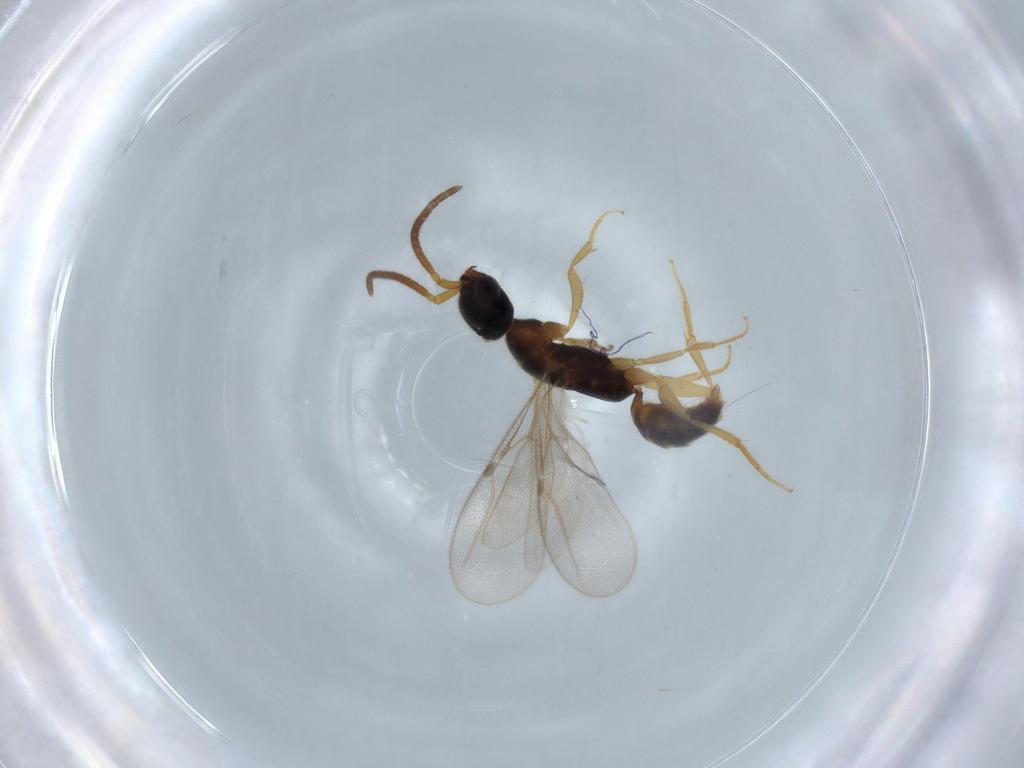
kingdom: Animalia
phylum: Arthropoda
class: Insecta
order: Hymenoptera
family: Bethylidae
